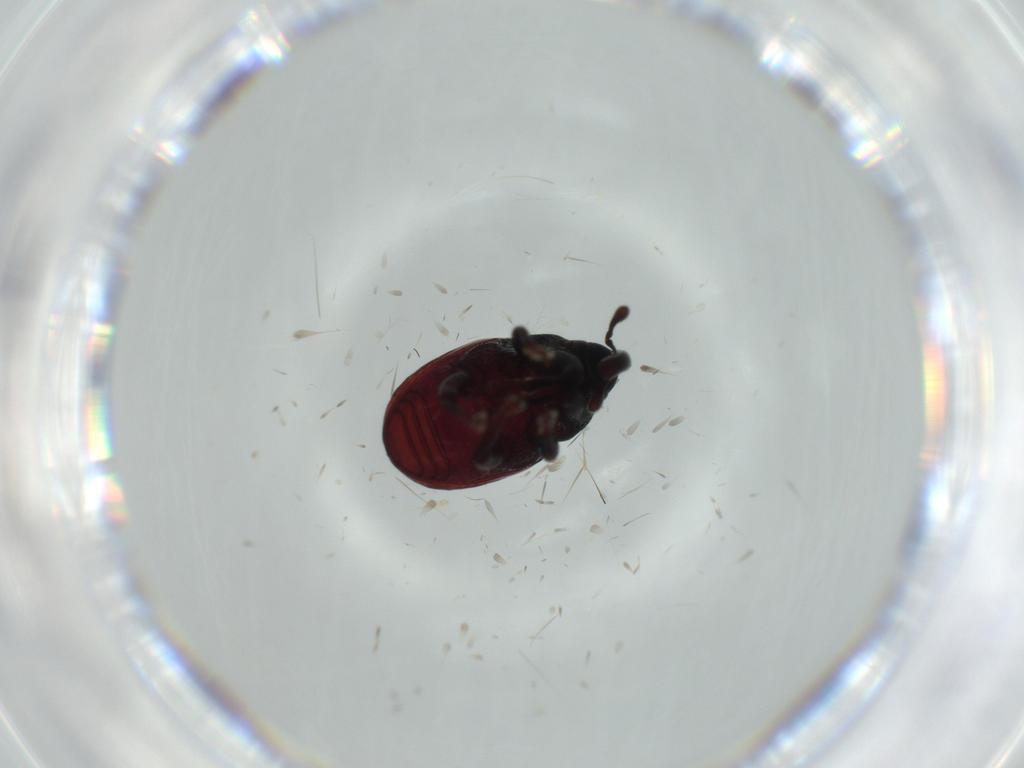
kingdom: Animalia
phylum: Arthropoda
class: Insecta
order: Coleoptera
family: Curculionidae
